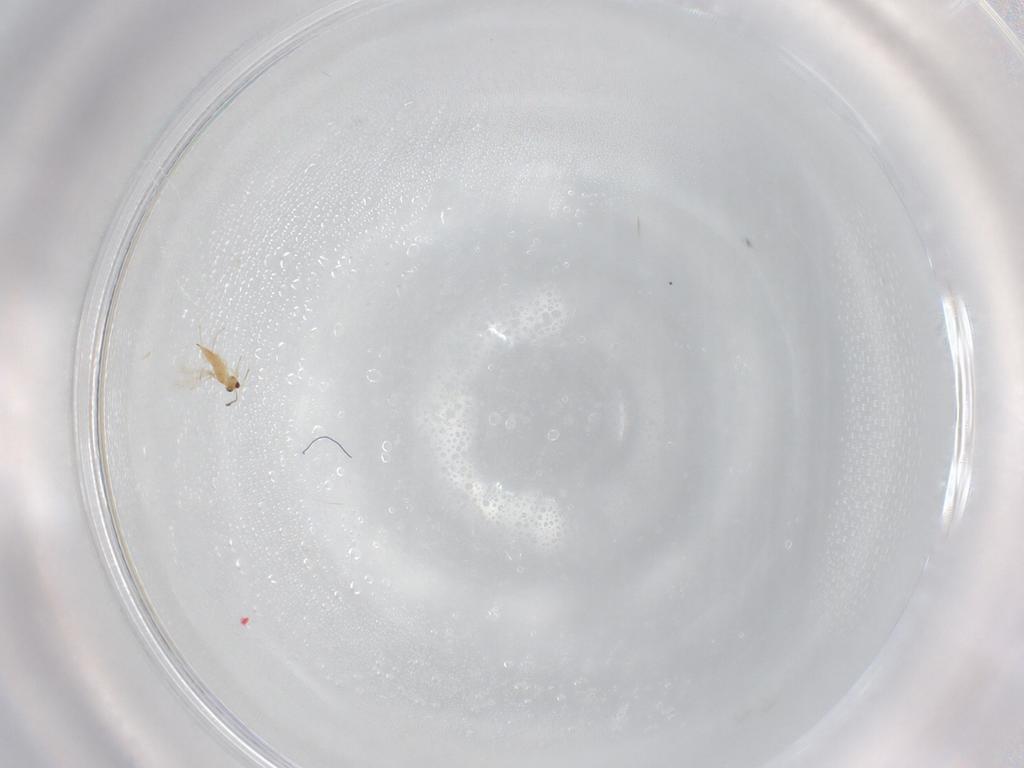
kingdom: Animalia
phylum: Arthropoda
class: Insecta
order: Hymenoptera
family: Mymaridae
